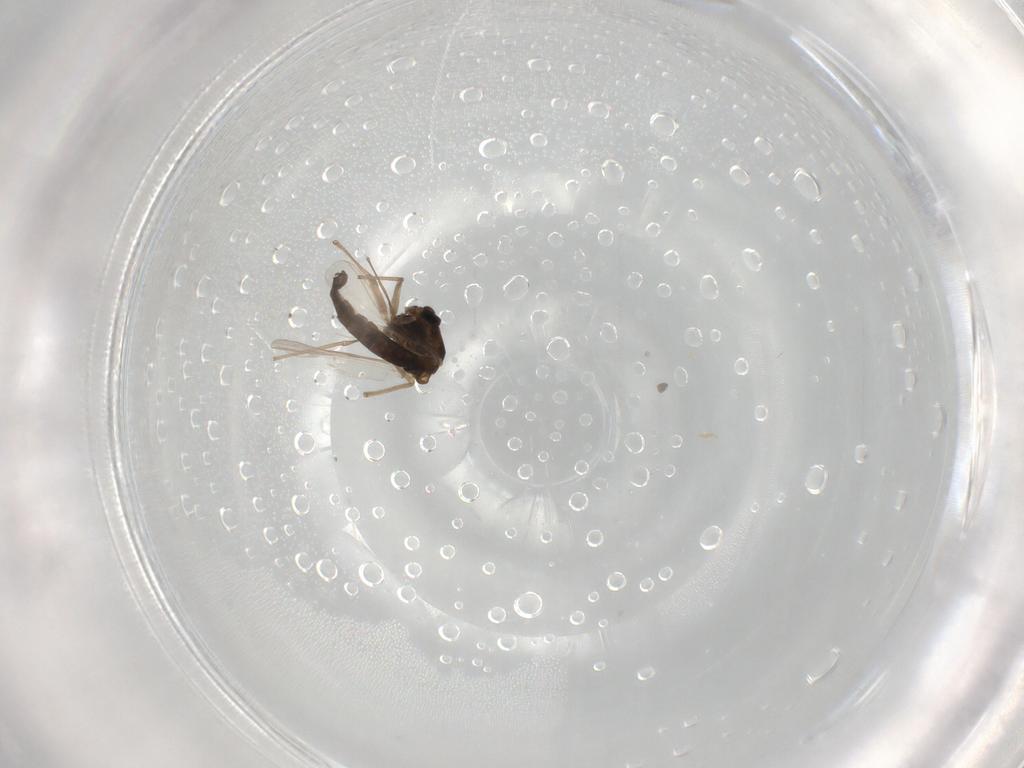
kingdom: Animalia
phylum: Arthropoda
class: Insecta
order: Diptera
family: Chironomidae
